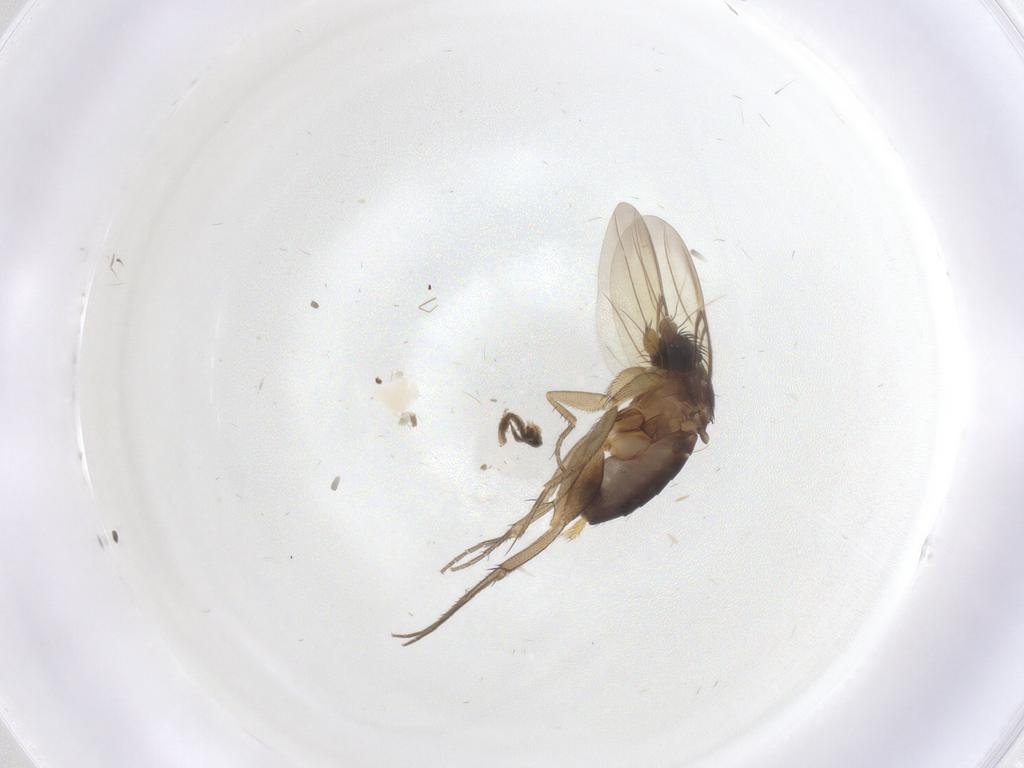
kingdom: Animalia
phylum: Arthropoda
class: Insecta
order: Diptera
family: Phoridae
